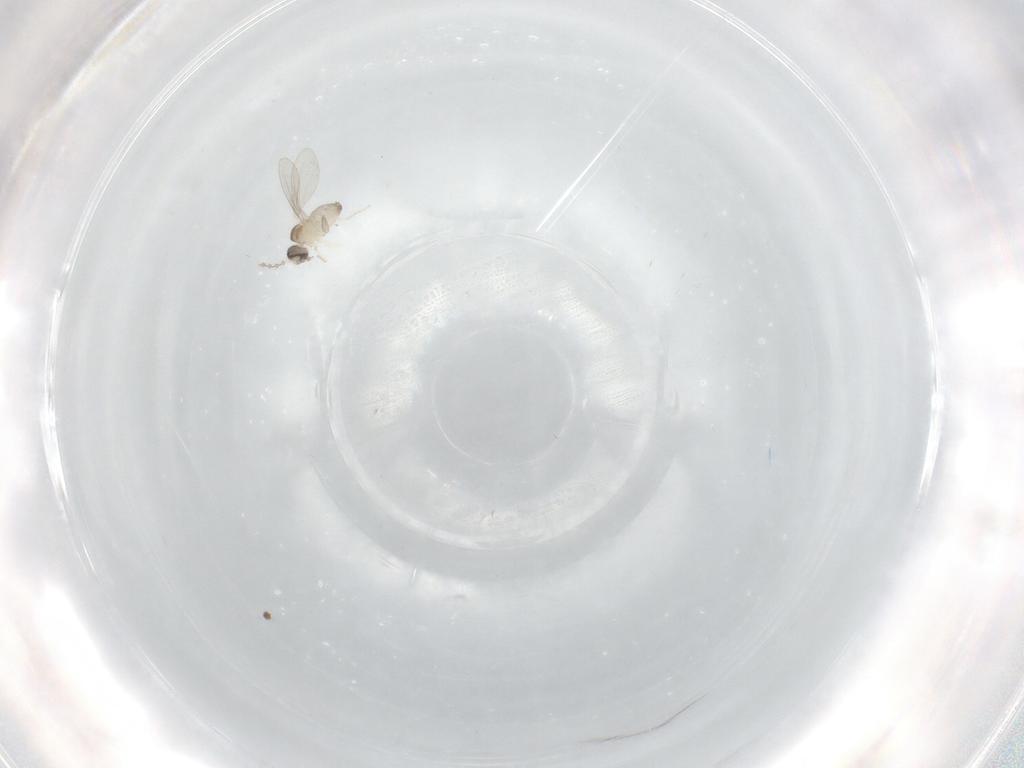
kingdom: Animalia
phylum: Arthropoda
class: Insecta
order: Diptera
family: Cecidomyiidae
